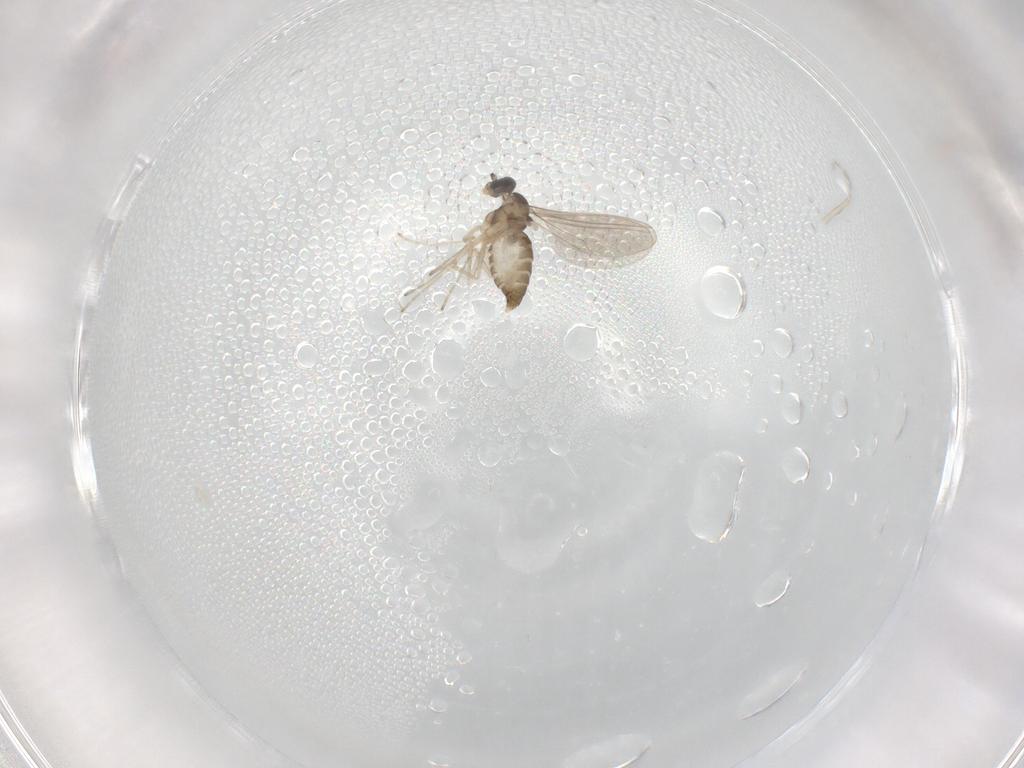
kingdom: Animalia
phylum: Arthropoda
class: Insecta
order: Diptera
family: Cecidomyiidae
